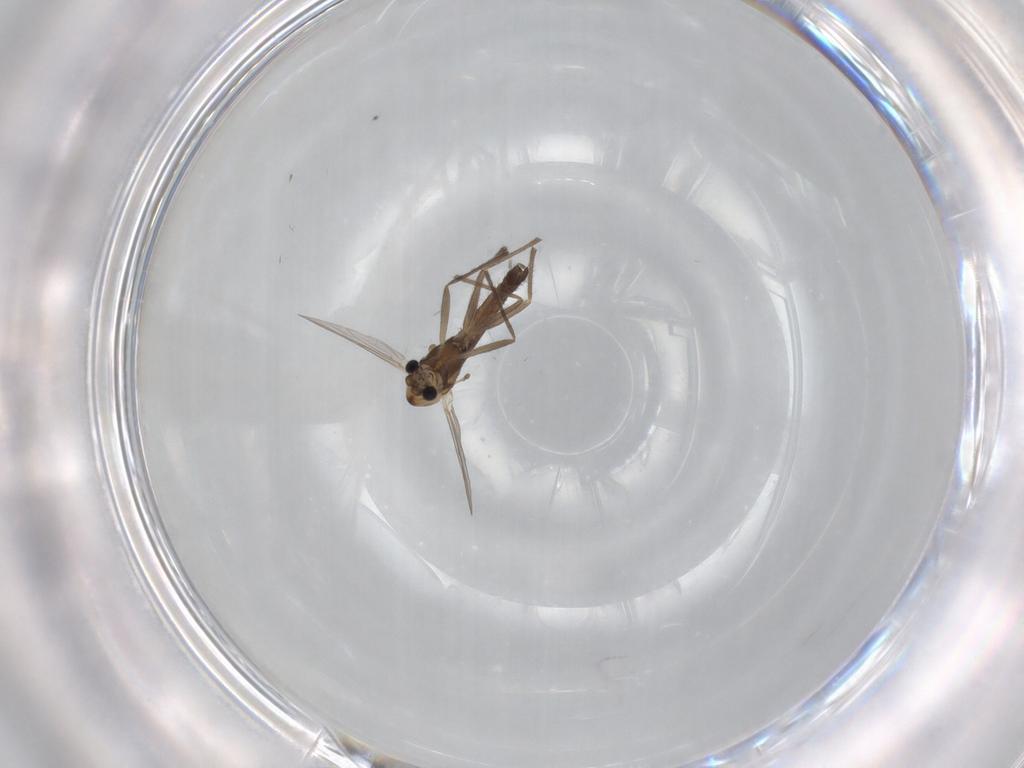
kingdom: Animalia
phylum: Arthropoda
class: Insecta
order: Diptera
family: Chironomidae
